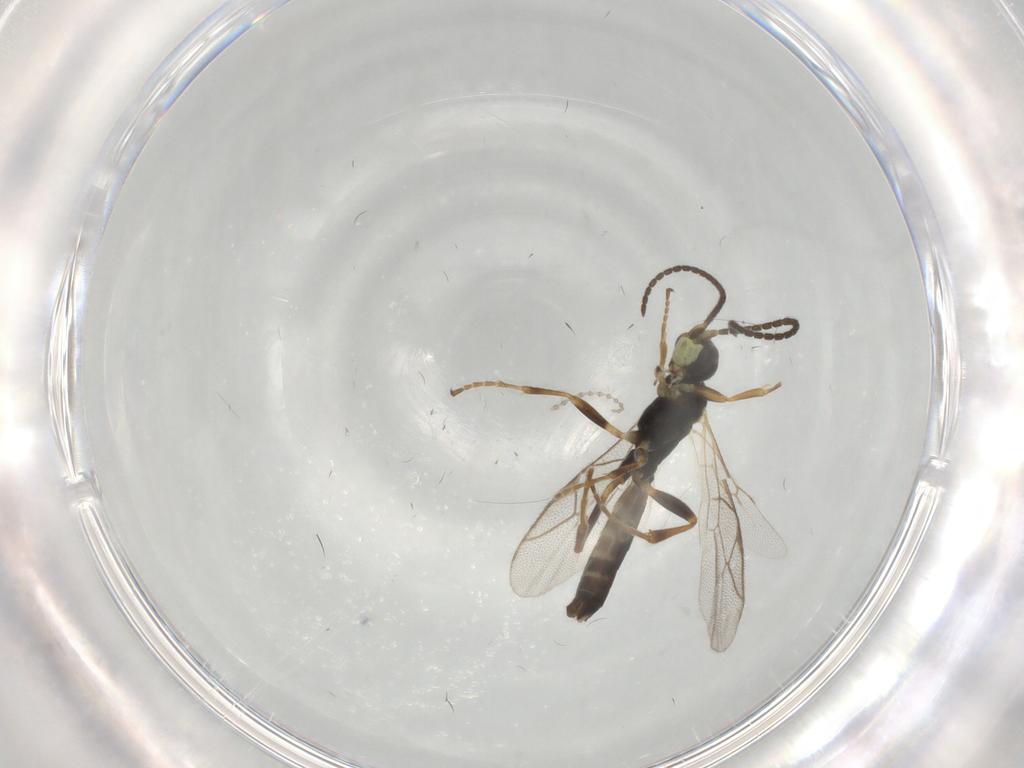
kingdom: Animalia
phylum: Arthropoda
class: Insecta
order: Hymenoptera
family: Ichneumonidae
